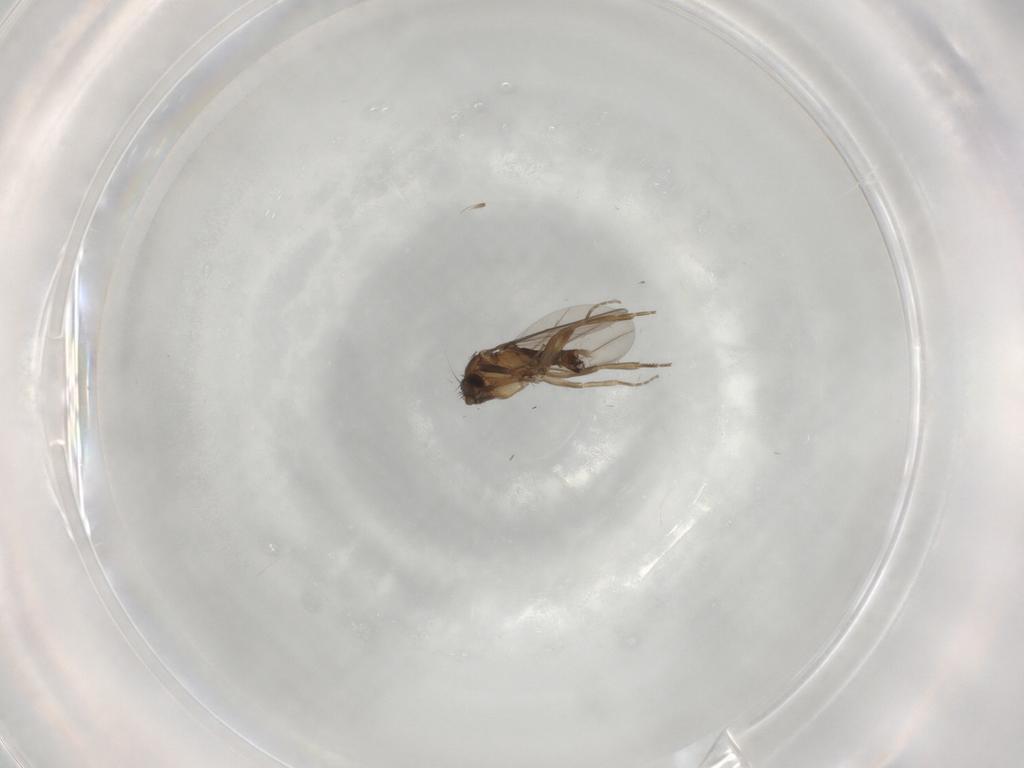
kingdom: Animalia
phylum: Arthropoda
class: Insecta
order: Diptera
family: Phoridae
